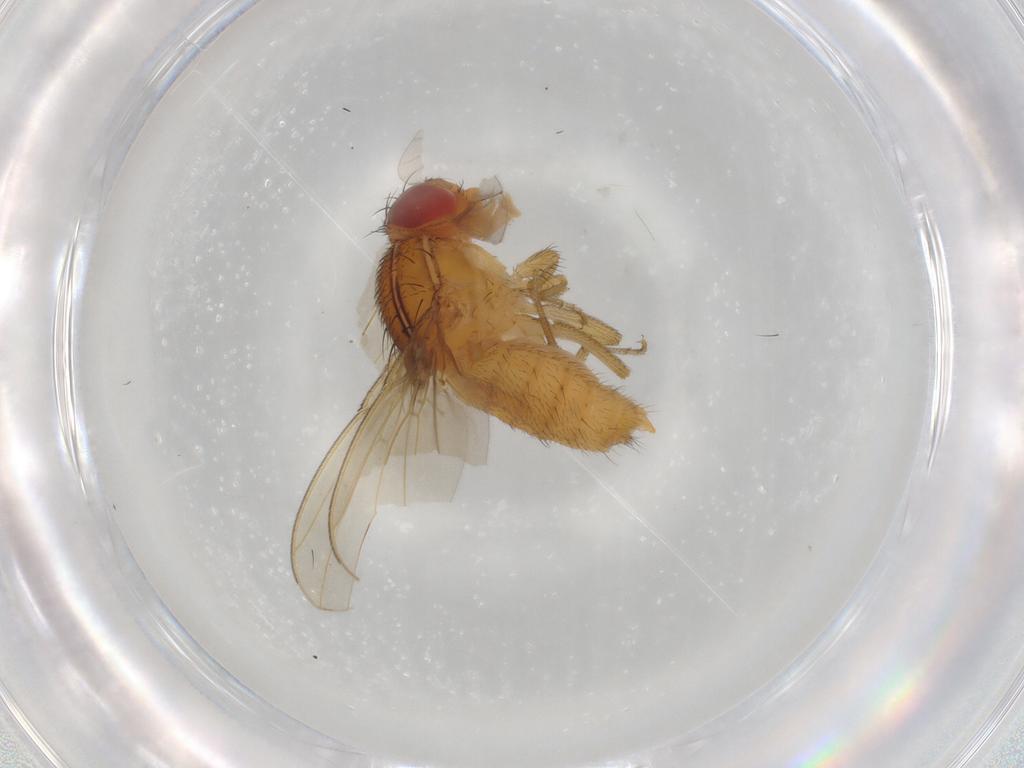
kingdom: Animalia
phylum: Arthropoda
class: Insecta
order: Diptera
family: Drosophilidae
